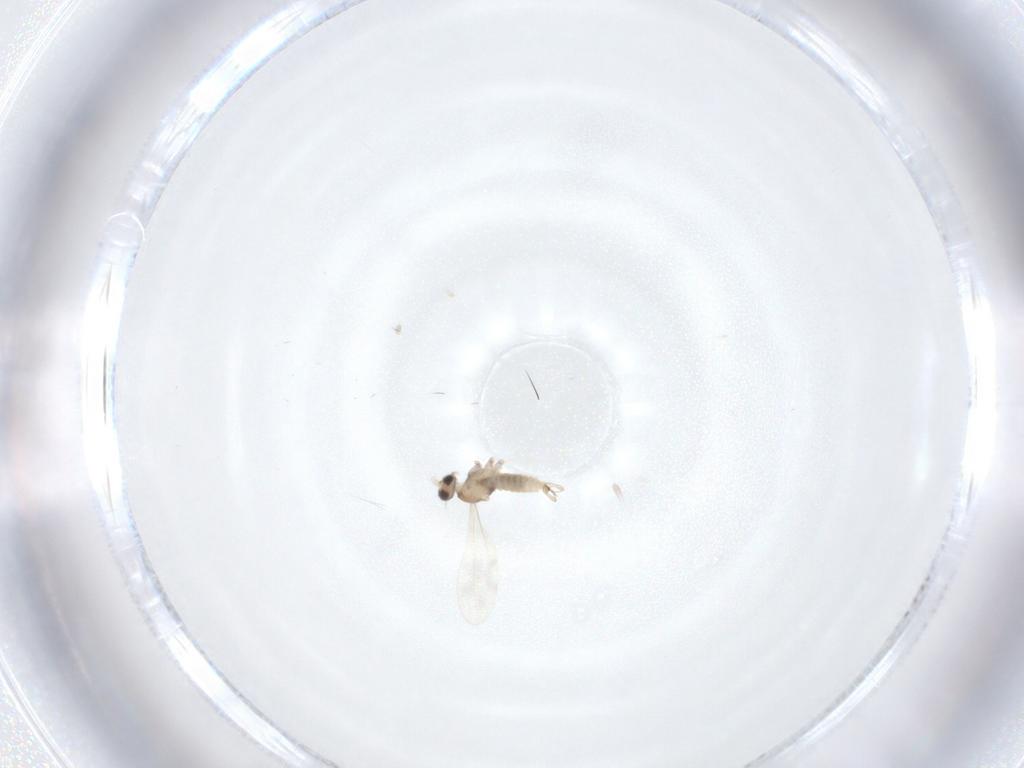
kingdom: Animalia
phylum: Arthropoda
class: Insecta
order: Diptera
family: Cecidomyiidae
